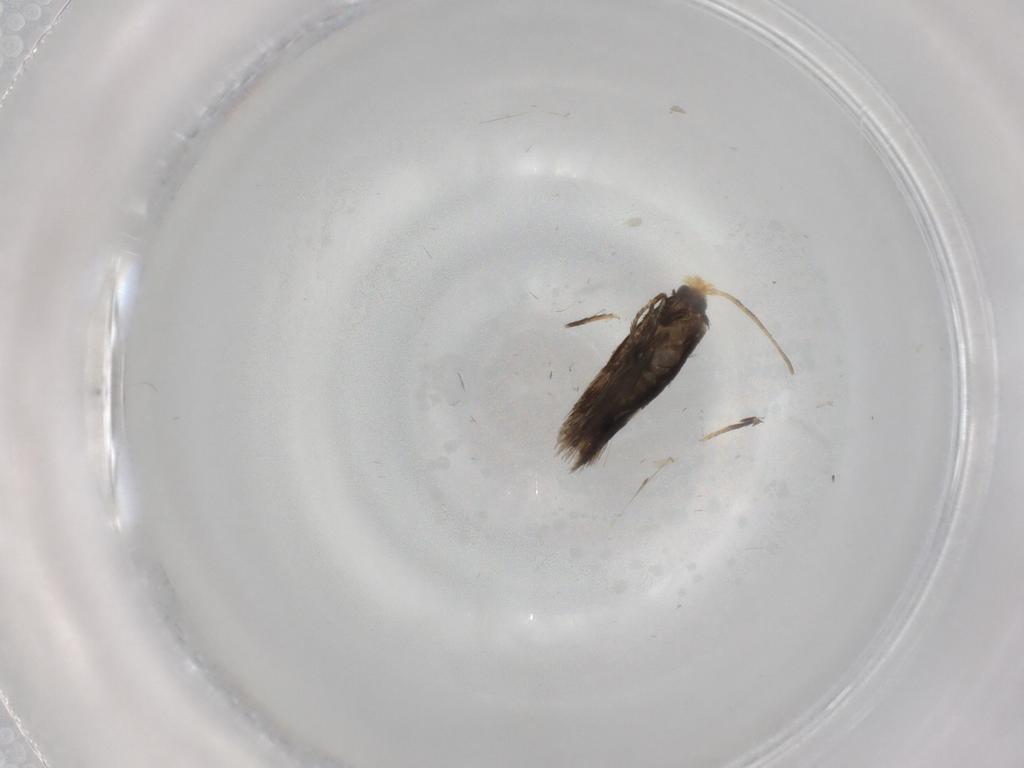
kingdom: Animalia
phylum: Arthropoda
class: Insecta
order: Lepidoptera
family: Nepticulidae
